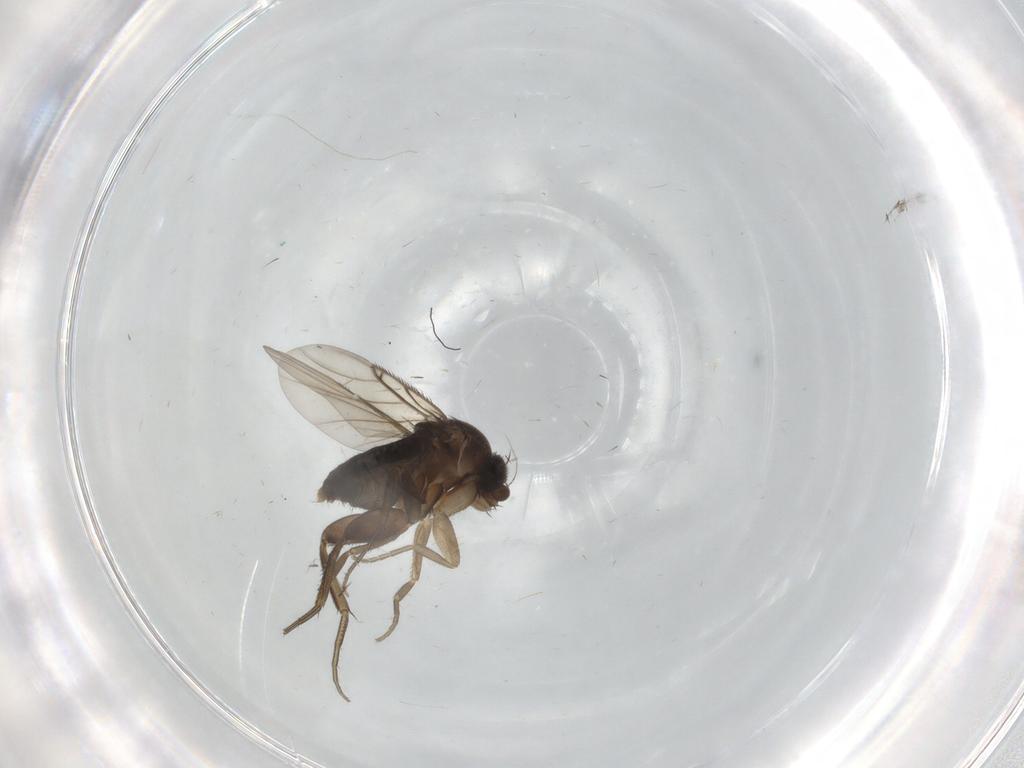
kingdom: Animalia
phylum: Arthropoda
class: Insecta
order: Diptera
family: Phoridae
